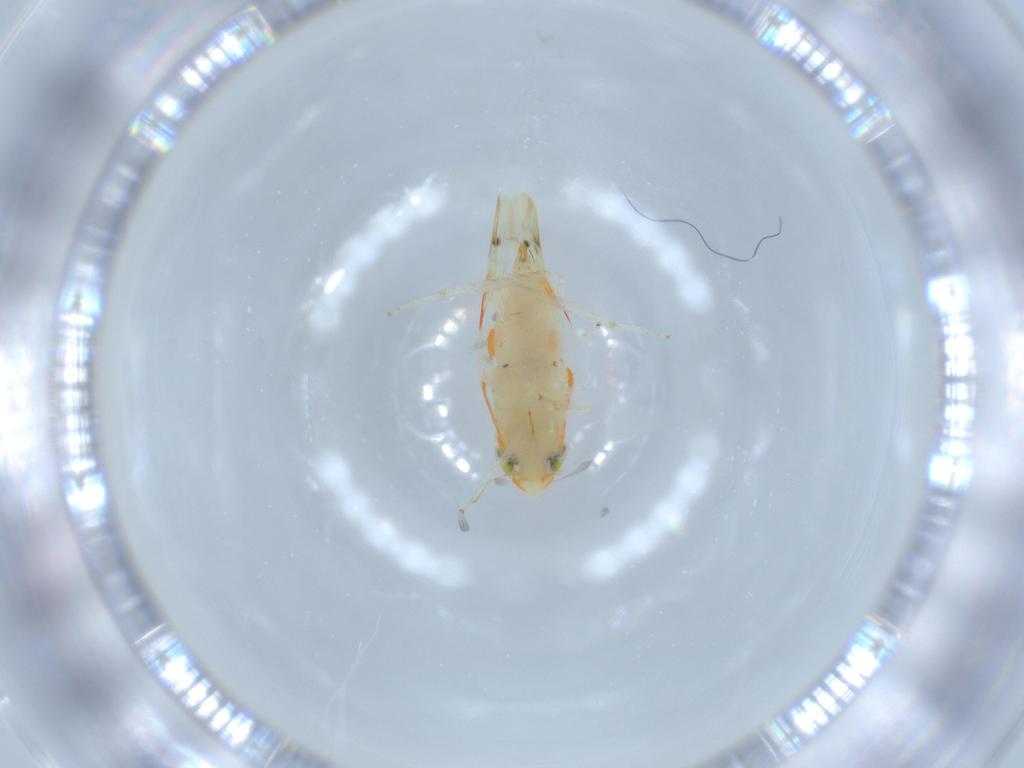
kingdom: Animalia
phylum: Arthropoda
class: Insecta
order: Hemiptera
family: Cicadellidae
